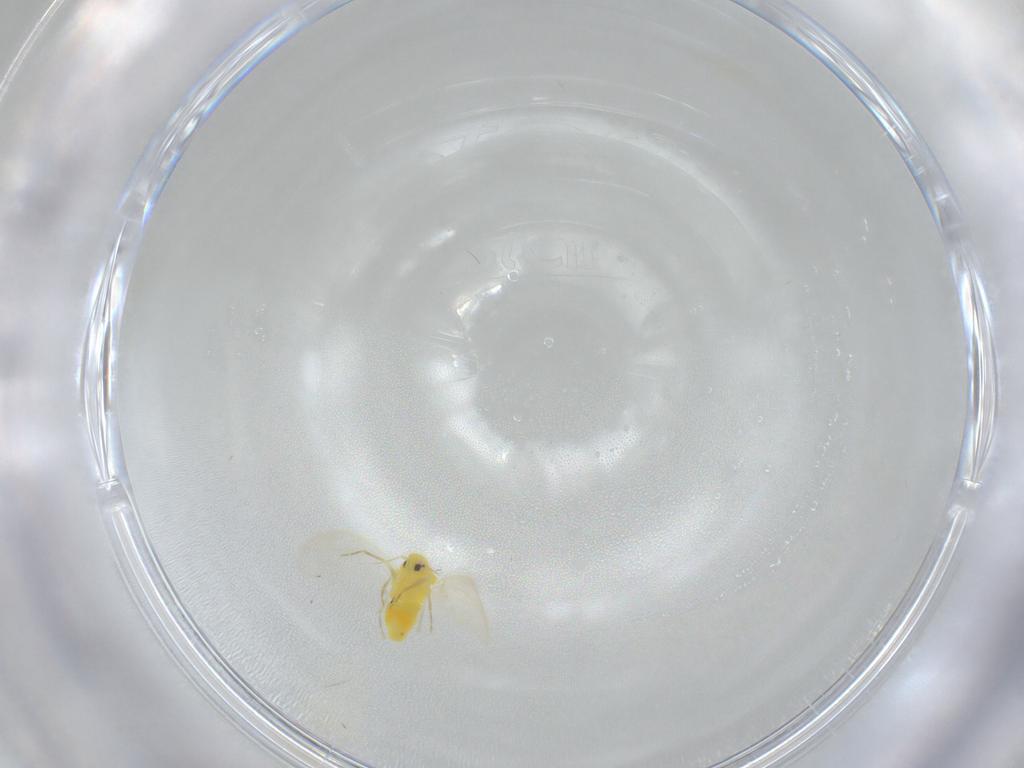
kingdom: Animalia
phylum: Arthropoda
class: Insecta
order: Hemiptera
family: Aleyrodidae
